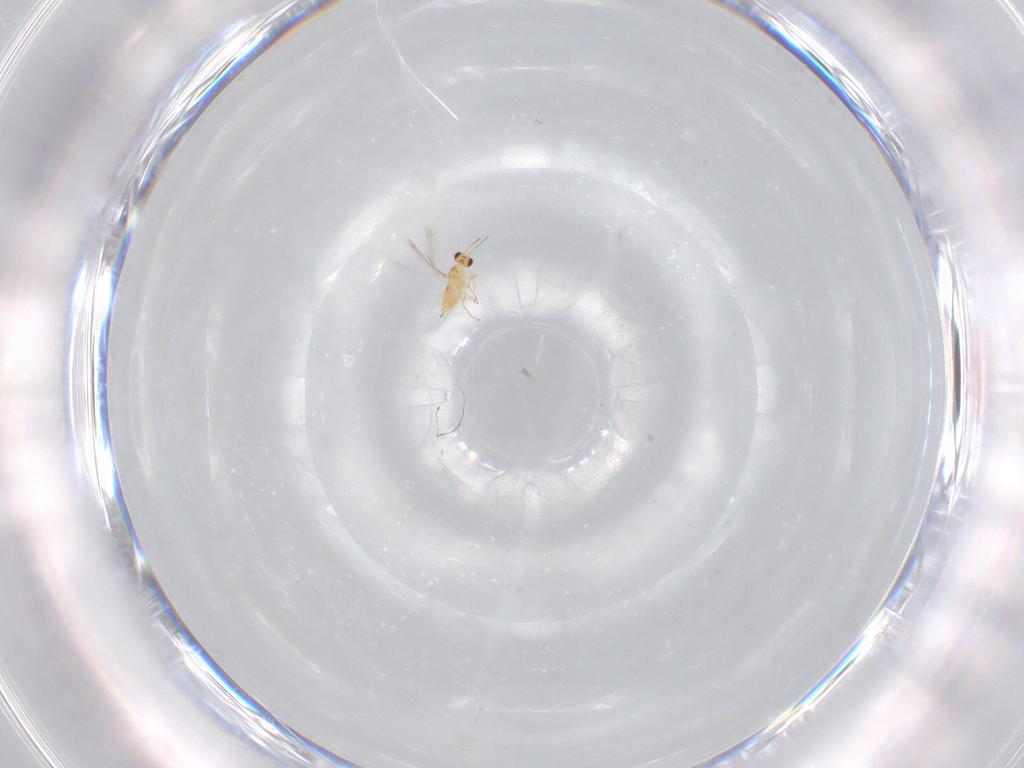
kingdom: Animalia
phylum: Arthropoda
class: Insecta
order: Hymenoptera
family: Mymaridae
